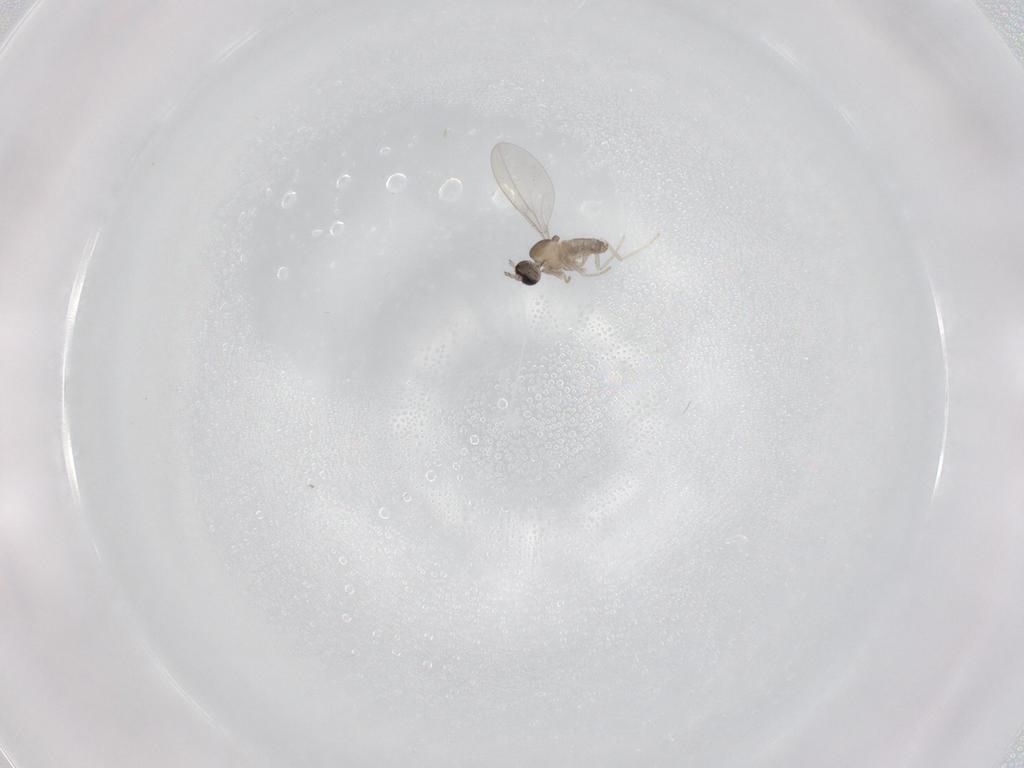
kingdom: Animalia
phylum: Arthropoda
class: Insecta
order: Diptera
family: Cecidomyiidae
